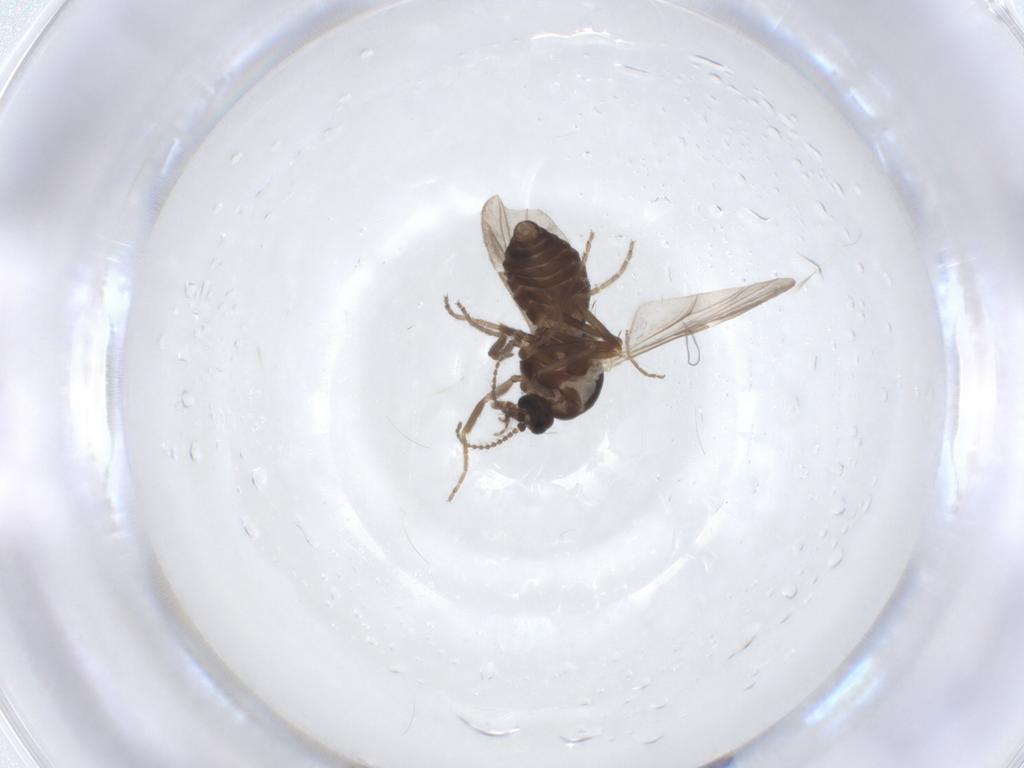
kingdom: Animalia
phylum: Arthropoda
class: Insecta
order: Diptera
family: Ceratopogonidae
